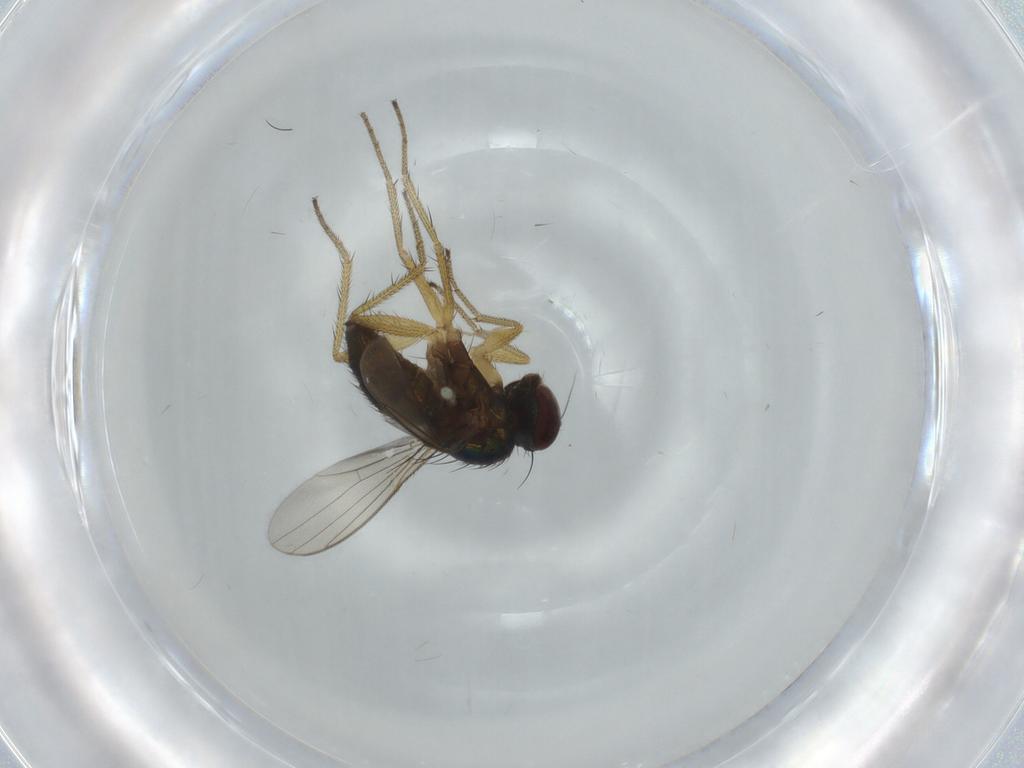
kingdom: Animalia
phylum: Arthropoda
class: Insecta
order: Diptera
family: Dolichopodidae
